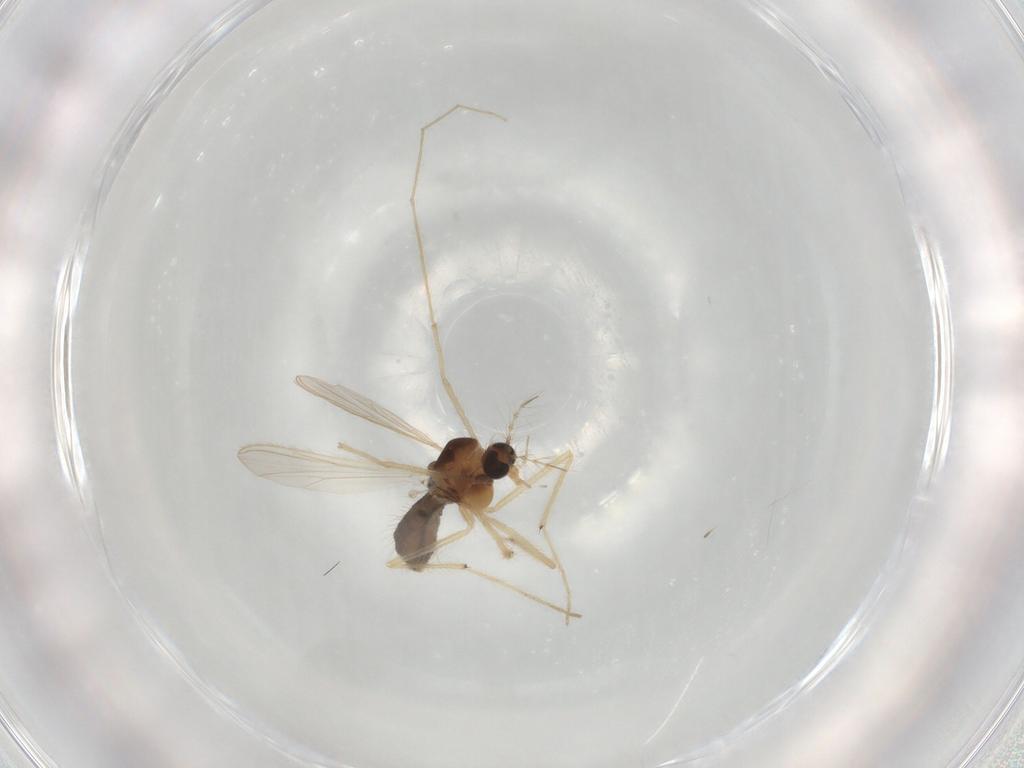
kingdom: Animalia
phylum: Arthropoda
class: Insecta
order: Diptera
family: Chironomidae
